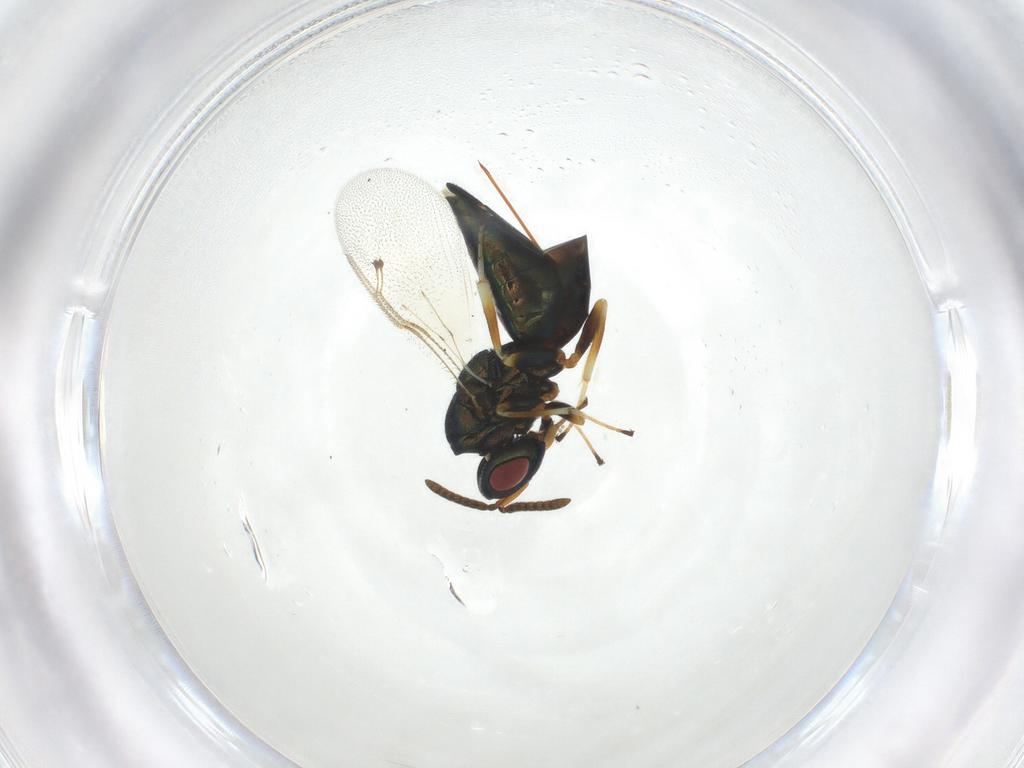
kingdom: Animalia
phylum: Arthropoda
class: Insecta
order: Hymenoptera
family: Pteromalidae
